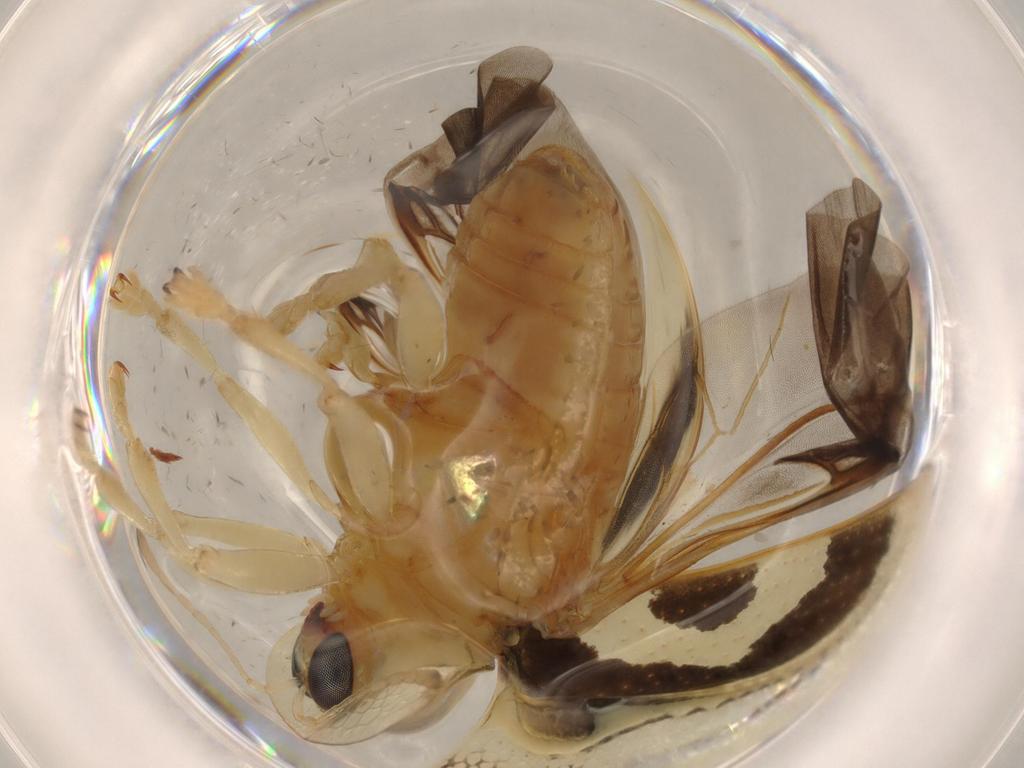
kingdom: Animalia
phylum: Arthropoda
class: Insecta
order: Coleoptera
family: Chrysomelidae
